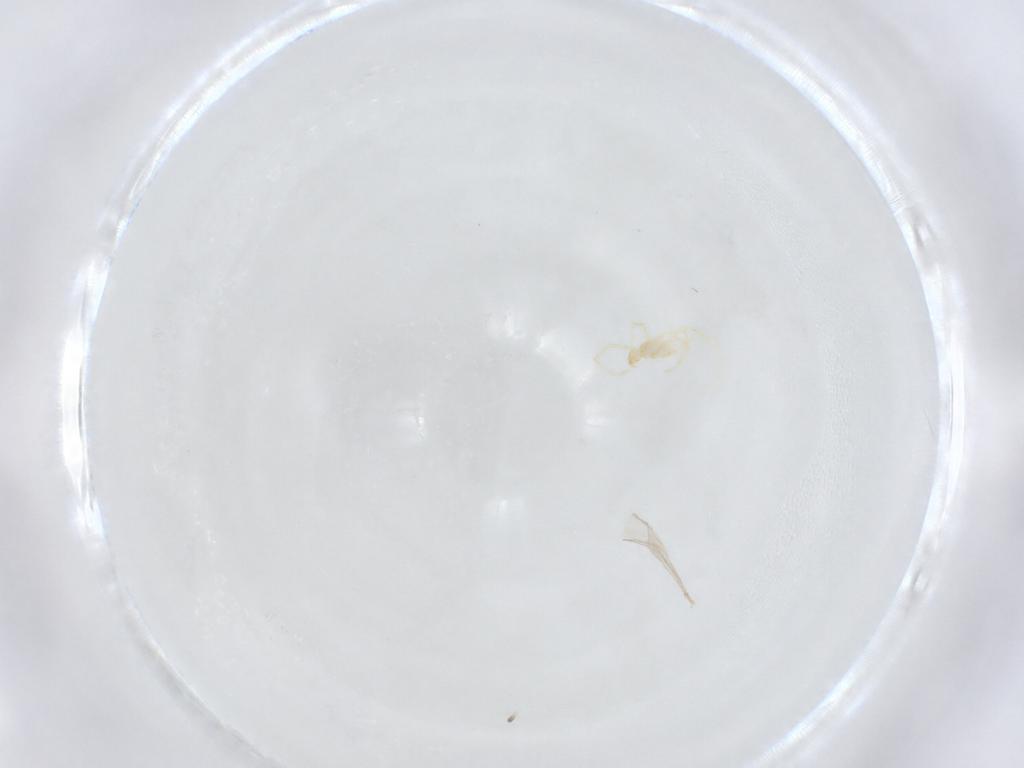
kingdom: Animalia
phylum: Arthropoda
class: Arachnida
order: Trombidiformes
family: Erythraeidae
